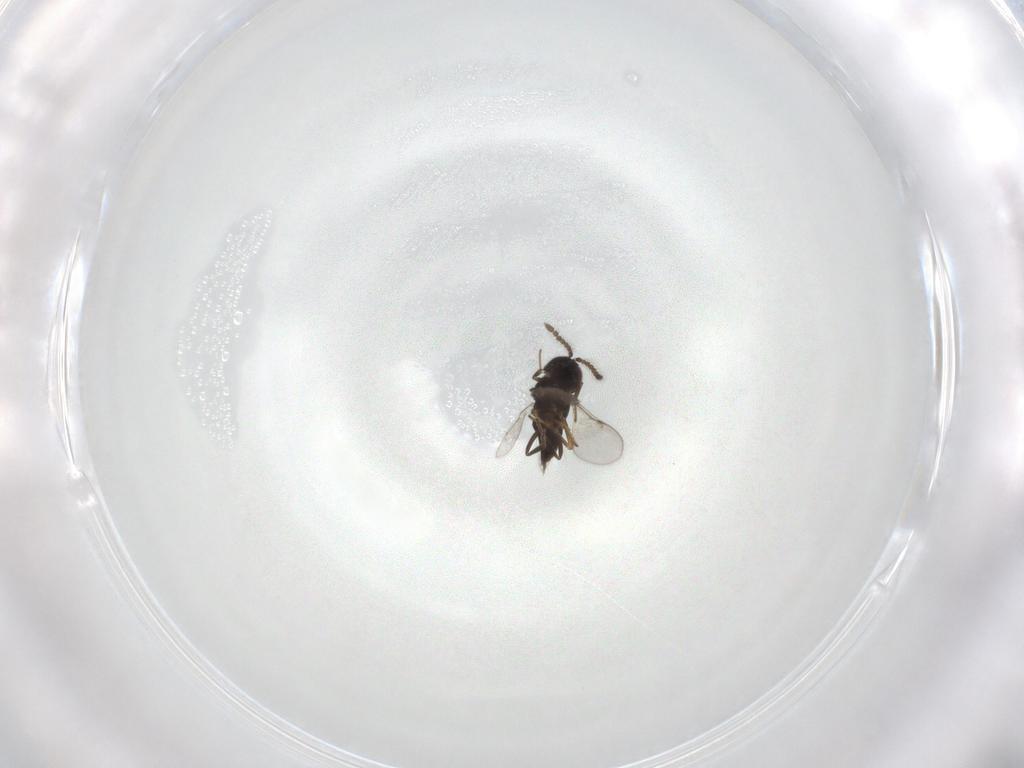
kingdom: Animalia
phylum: Arthropoda
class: Insecta
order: Hymenoptera
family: Encyrtidae
